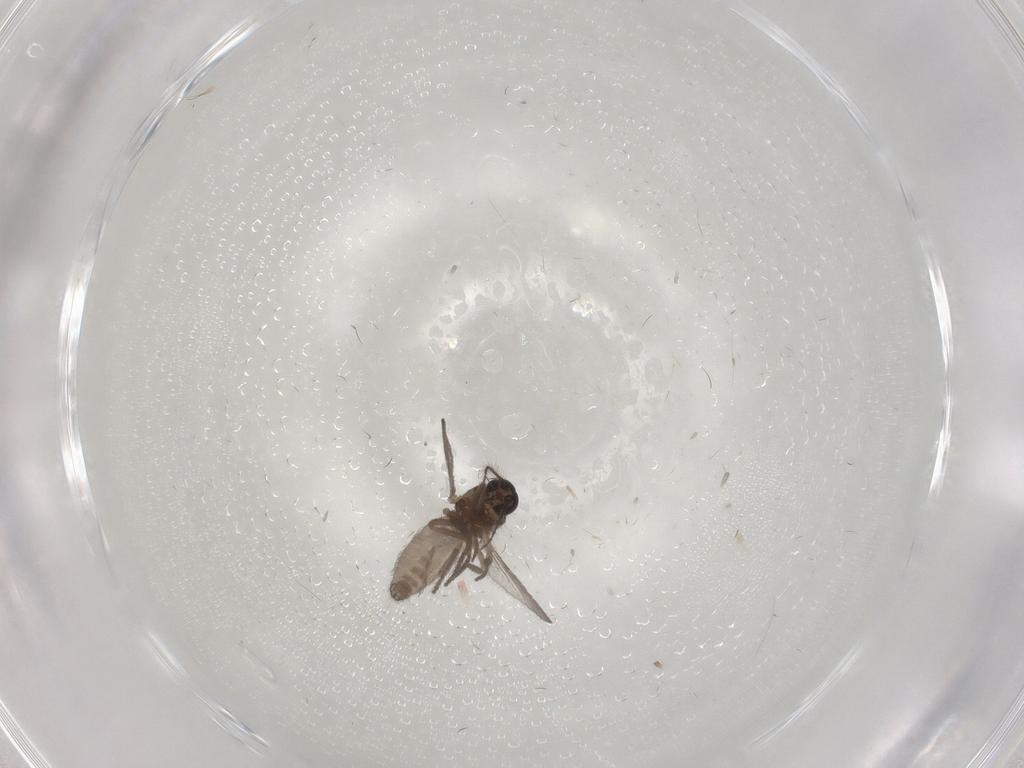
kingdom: Animalia
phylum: Arthropoda
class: Insecta
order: Diptera
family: Ceratopogonidae
